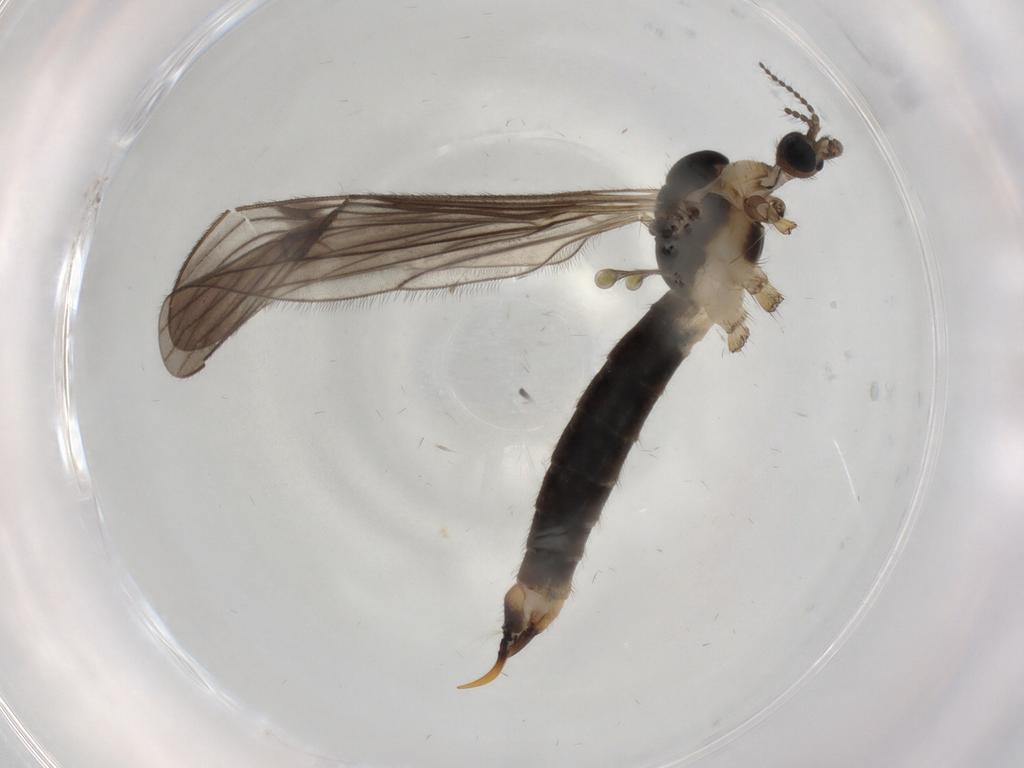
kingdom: Animalia
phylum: Arthropoda
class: Insecta
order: Diptera
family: Limoniidae
